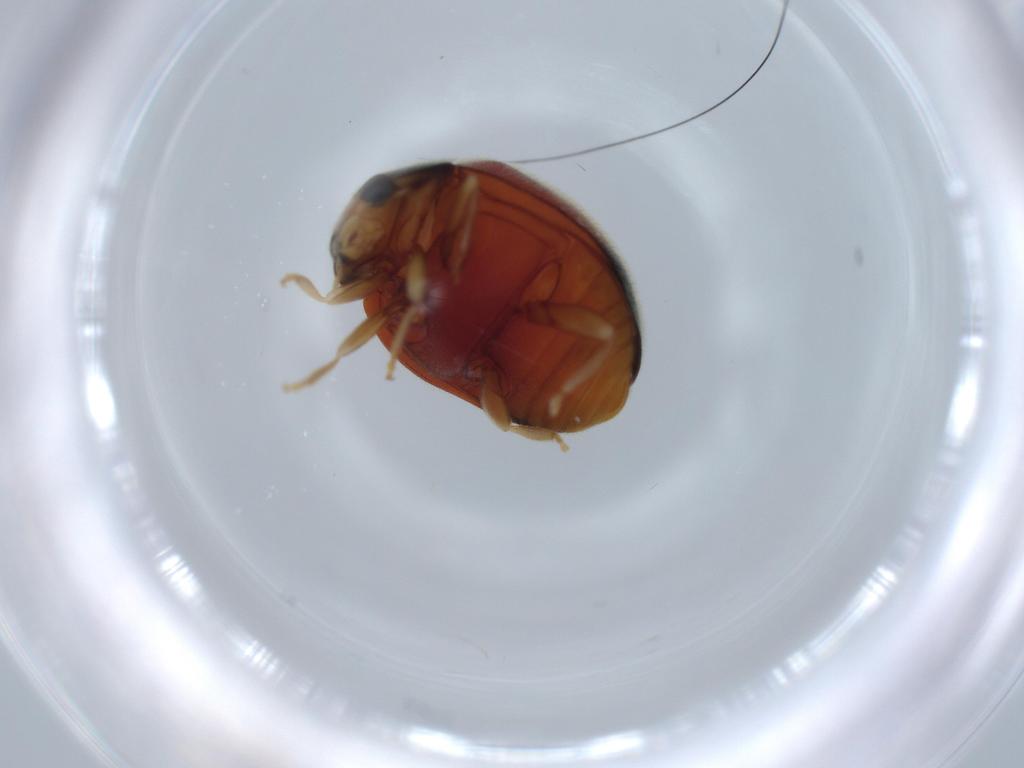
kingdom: Animalia
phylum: Arthropoda
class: Insecta
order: Coleoptera
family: Coccinellidae
